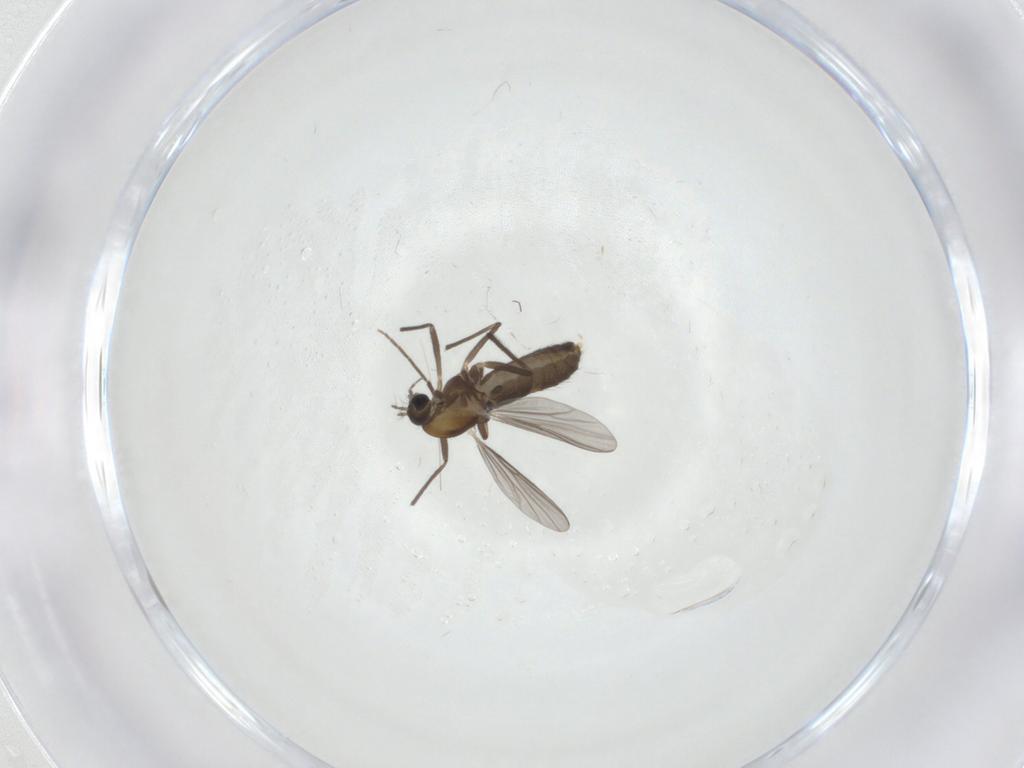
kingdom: Animalia
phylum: Arthropoda
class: Insecta
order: Diptera
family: Chironomidae
